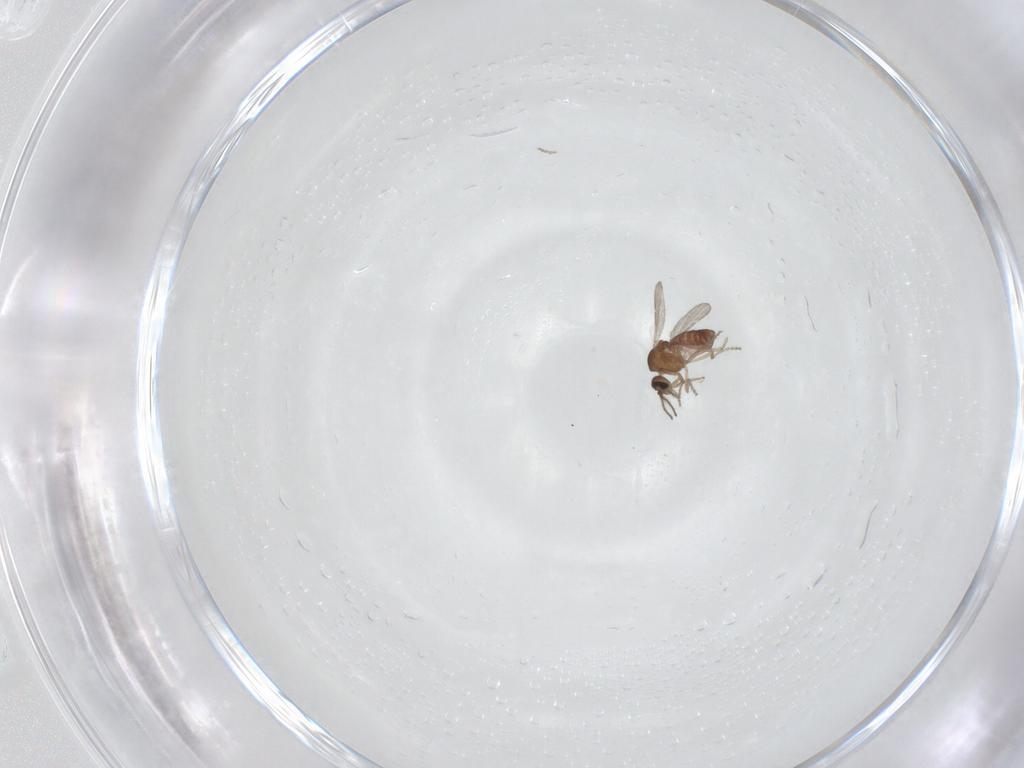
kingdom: Animalia
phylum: Arthropoda
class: Insecta
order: Diptera
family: Ceratopogonidae
